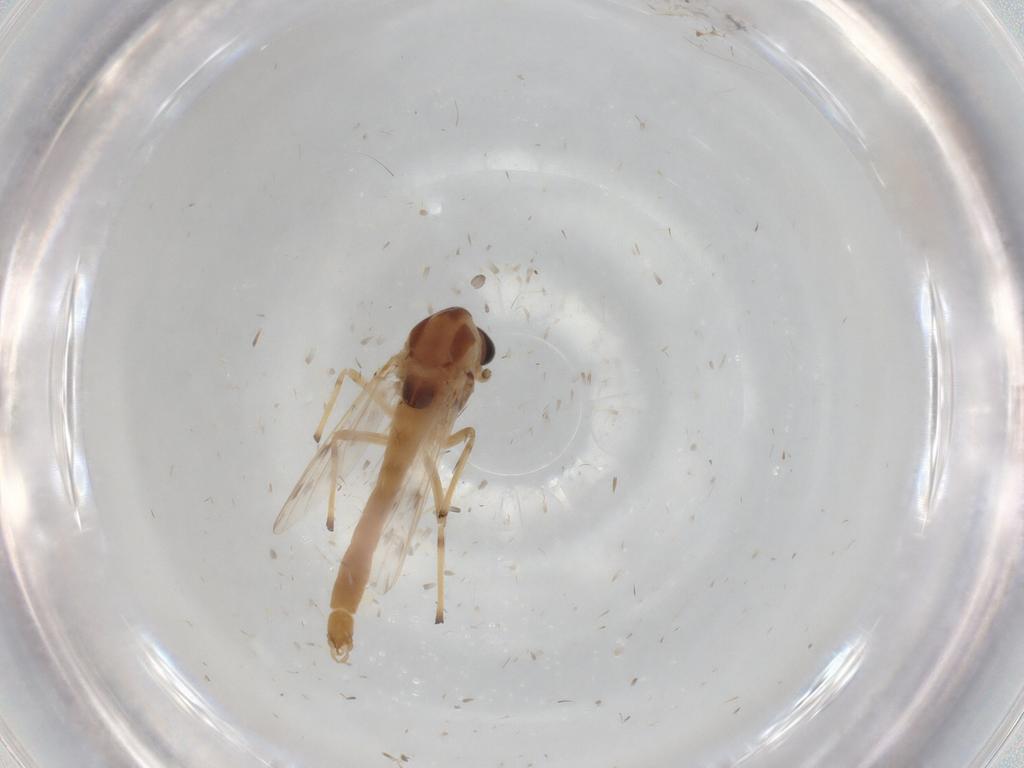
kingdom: Animalia
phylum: Arthropoda
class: Insecta
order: Diptera
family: Chironomidae
